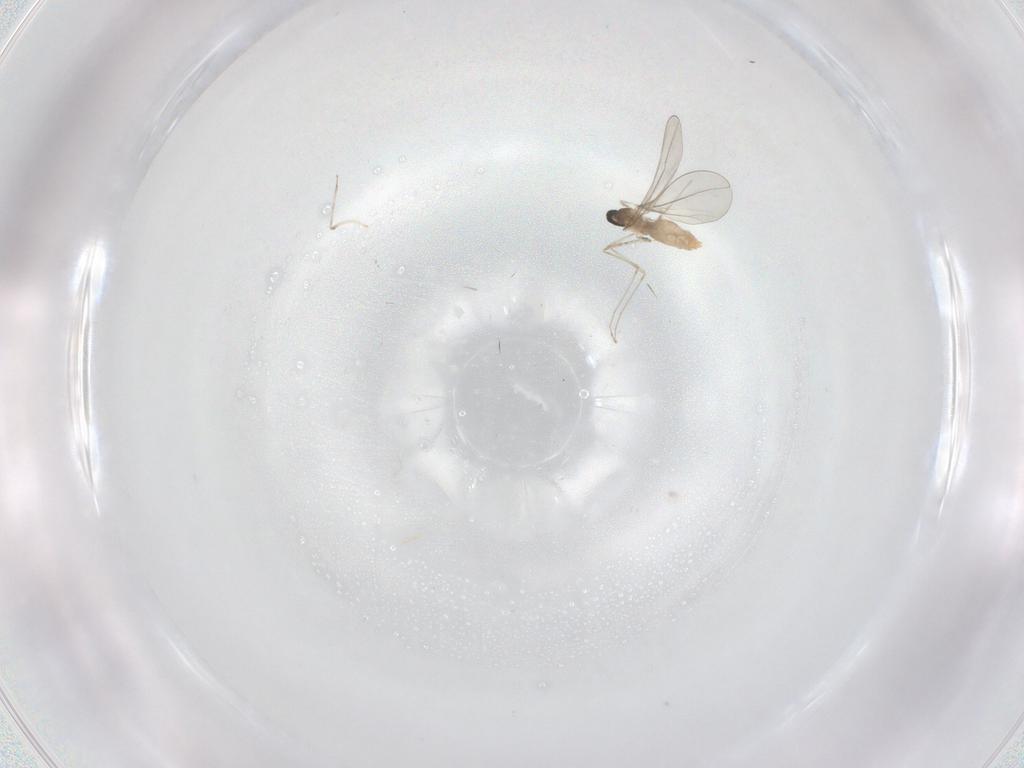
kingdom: Animalia
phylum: Arthropoda
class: Insecta
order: Diptera
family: Cecidomyiidae
